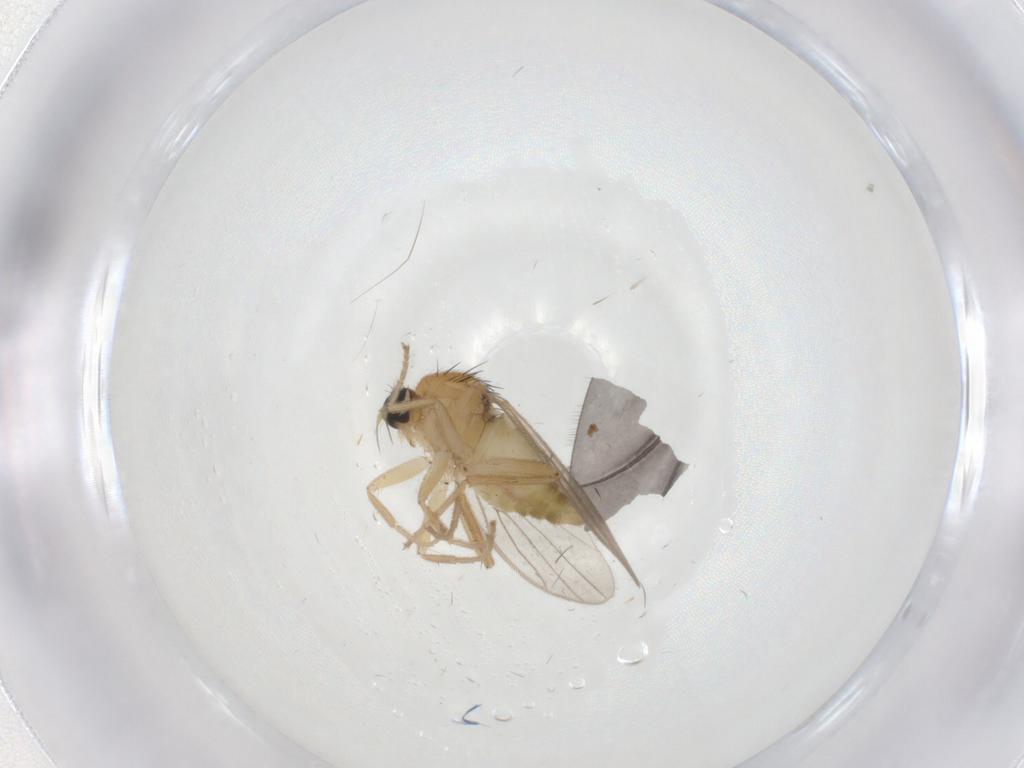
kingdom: Animalia
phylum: Arthropoda
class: Insecta
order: Diptera
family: Hybotidae
